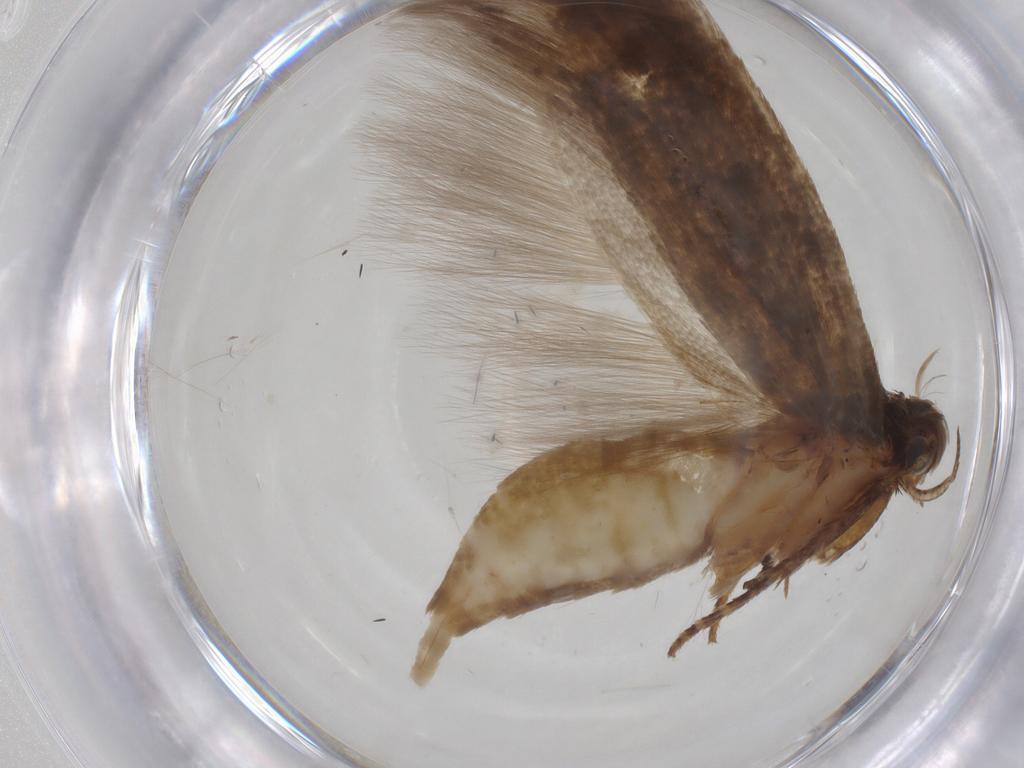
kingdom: Animalia
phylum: Arthropoda
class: Insecta
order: Lepidoptera
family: Gelechiidae
